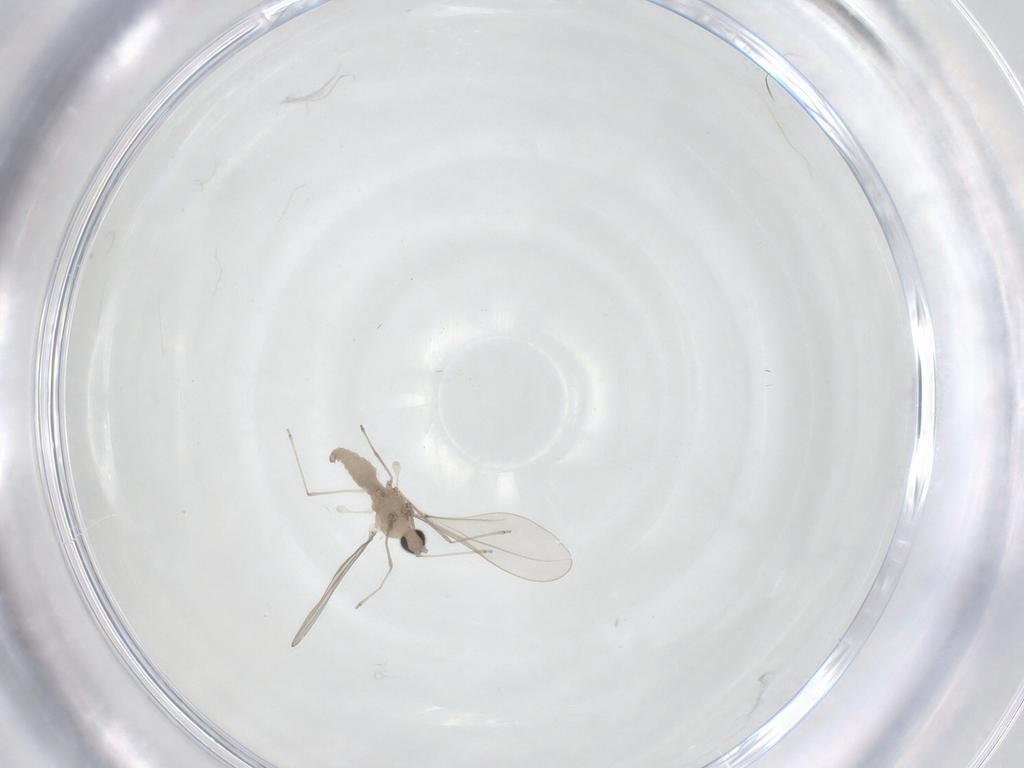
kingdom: Animalia
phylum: Arthropoda
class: Insecta
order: Diptera
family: Cecidomyiidae
